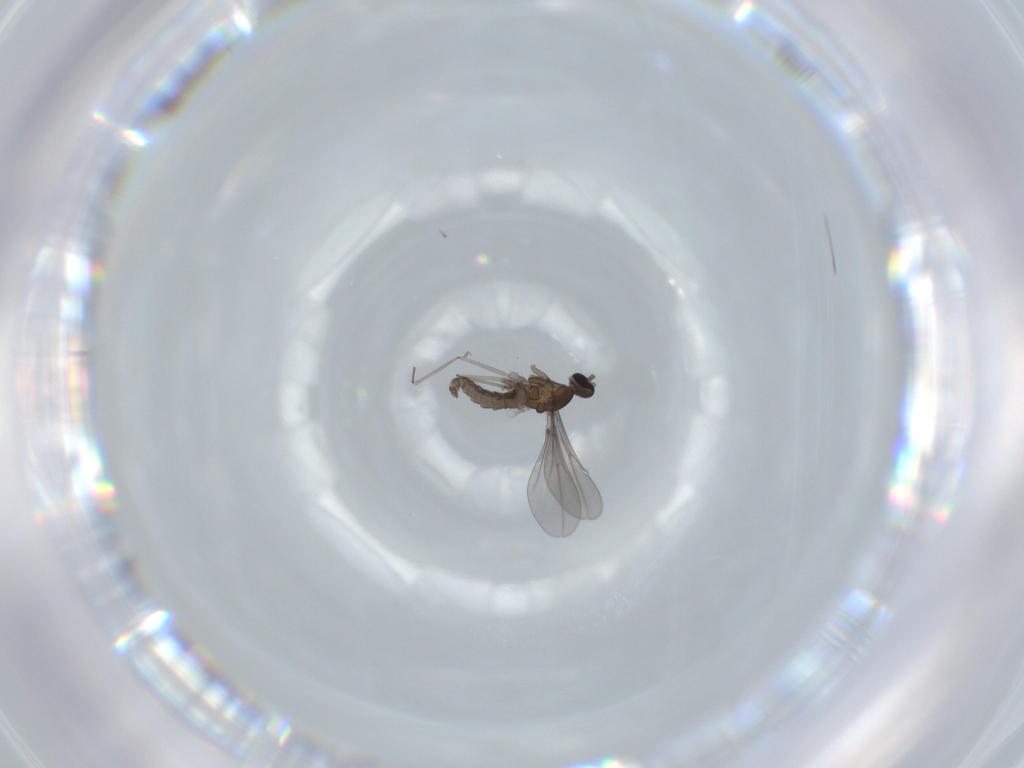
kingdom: Animalia
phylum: Arthropoda
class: Insecta
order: Diptera
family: Cecidomyiidae
